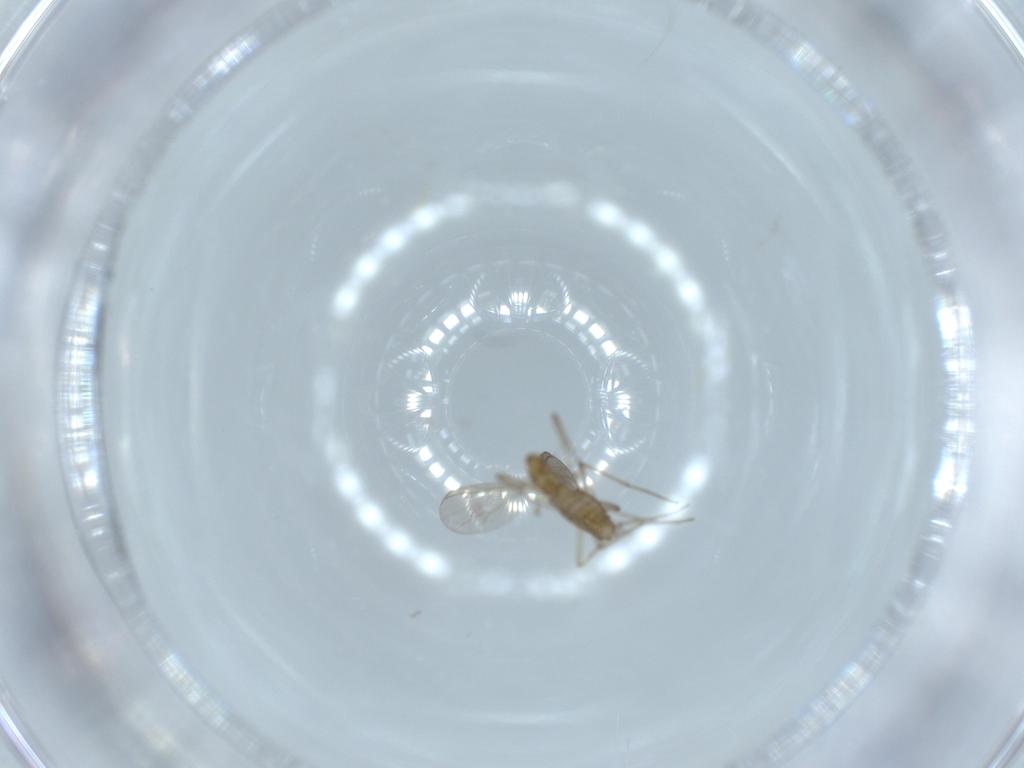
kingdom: Animalia
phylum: Arthropoda
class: Insecta
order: Diptera
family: Chironomidae
